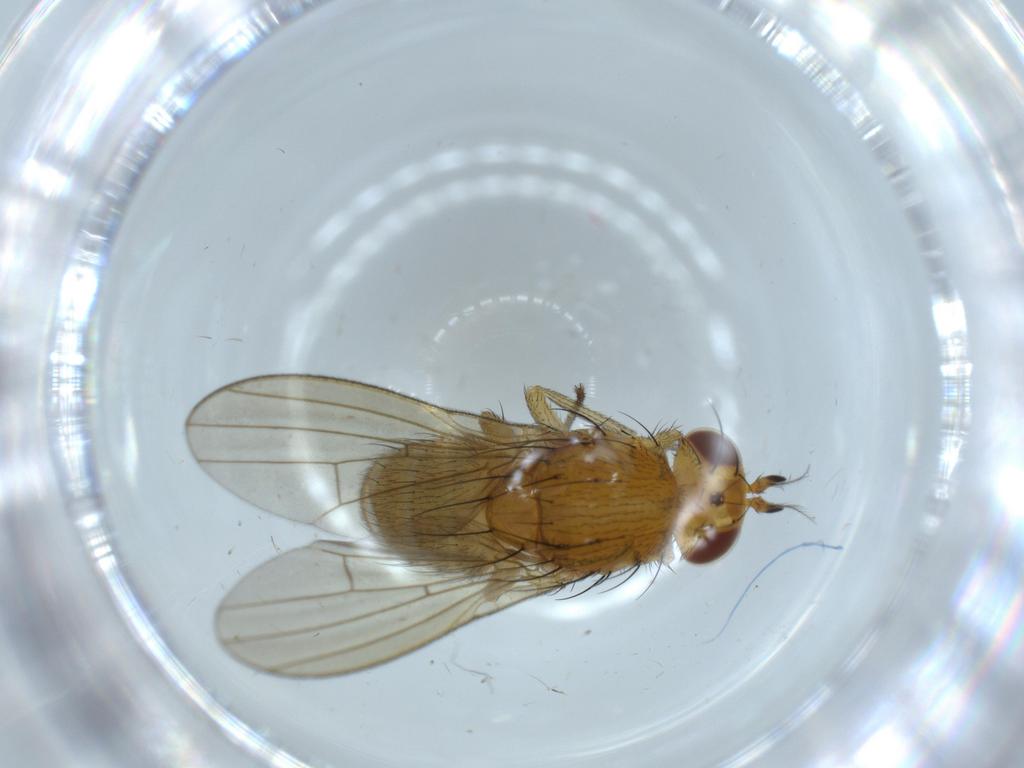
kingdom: Animalia
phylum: Arthropoda
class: Insecta
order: Diptera
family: Lauxaniidae
